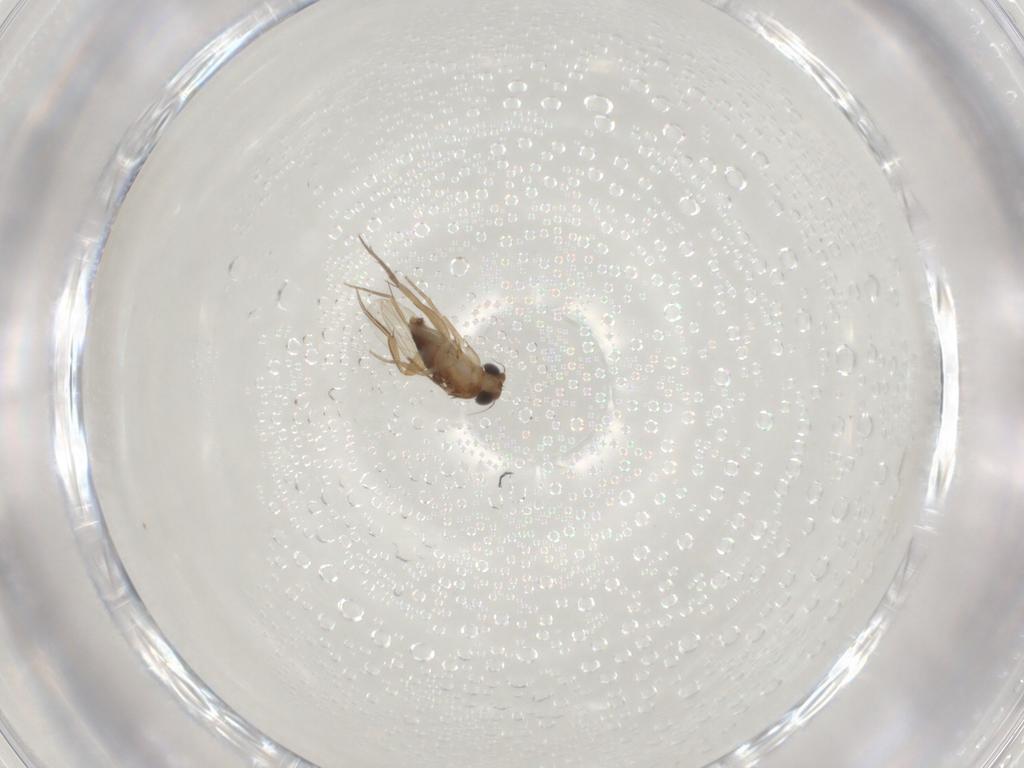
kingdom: Animalia
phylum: Arthropoda
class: Insecta
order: Diptera
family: Phoridae
